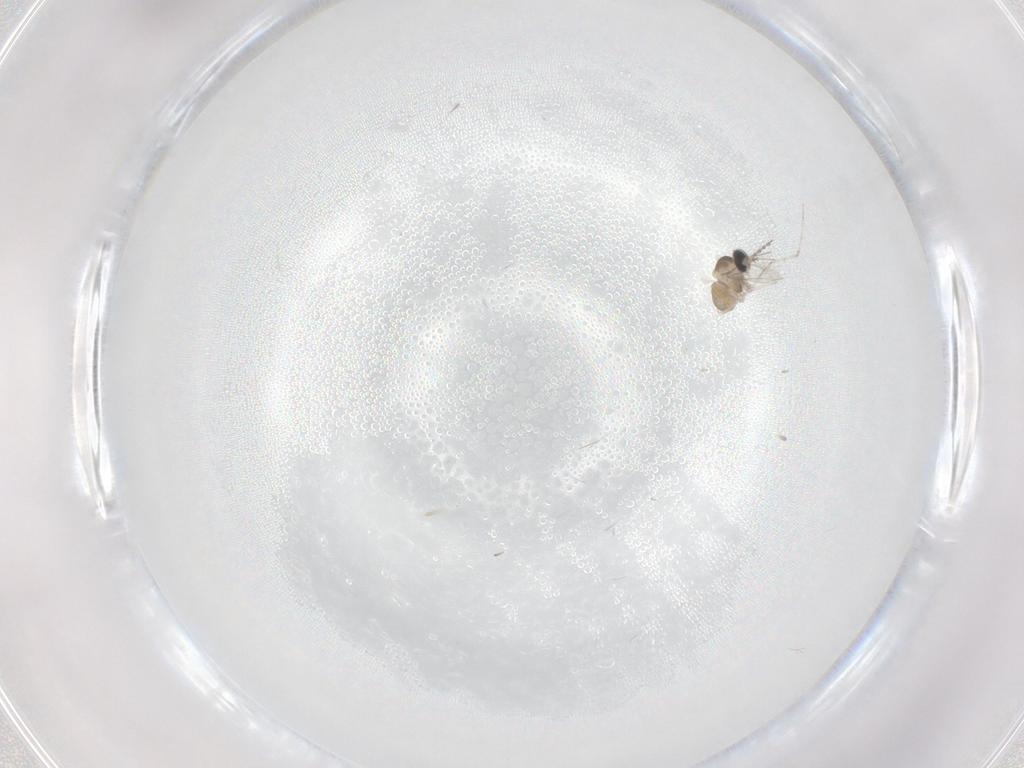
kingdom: Animalia
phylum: Arthropoda
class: Insecta
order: Diptera
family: Cecidomyiidae
